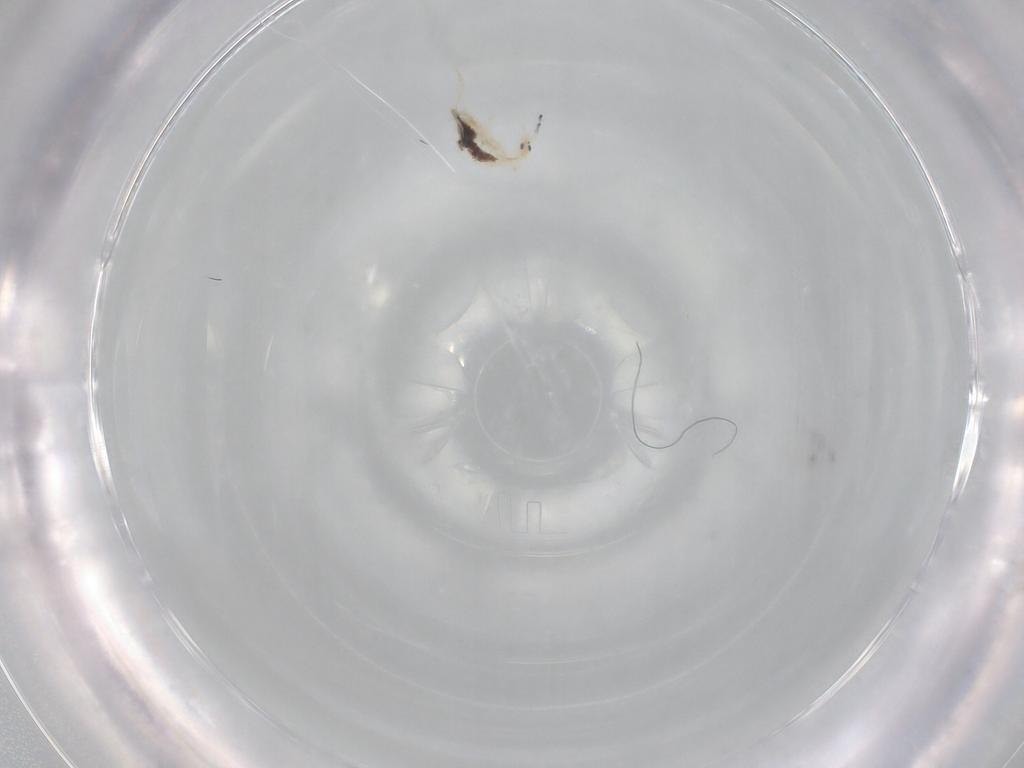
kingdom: Animalia
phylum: Arthropoda
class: Collembola
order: Entomobryomorpha
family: Entomobryidae
